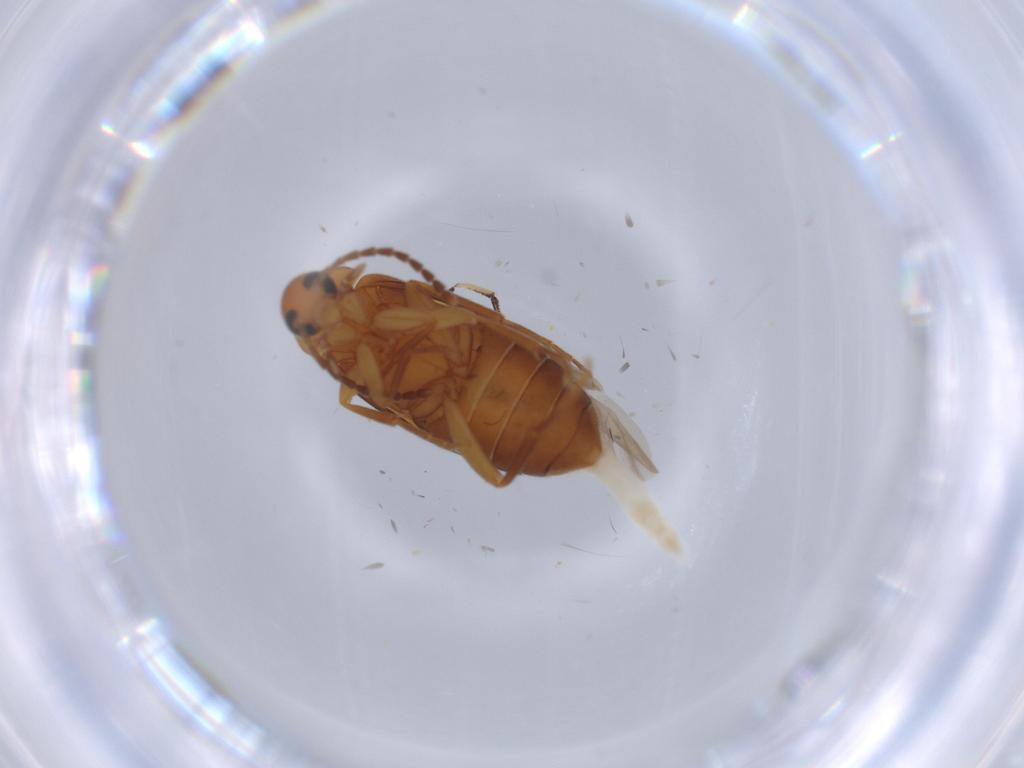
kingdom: Animalia
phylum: Arthropoda
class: Insecta
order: Coleoptera
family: Scraptiidae
